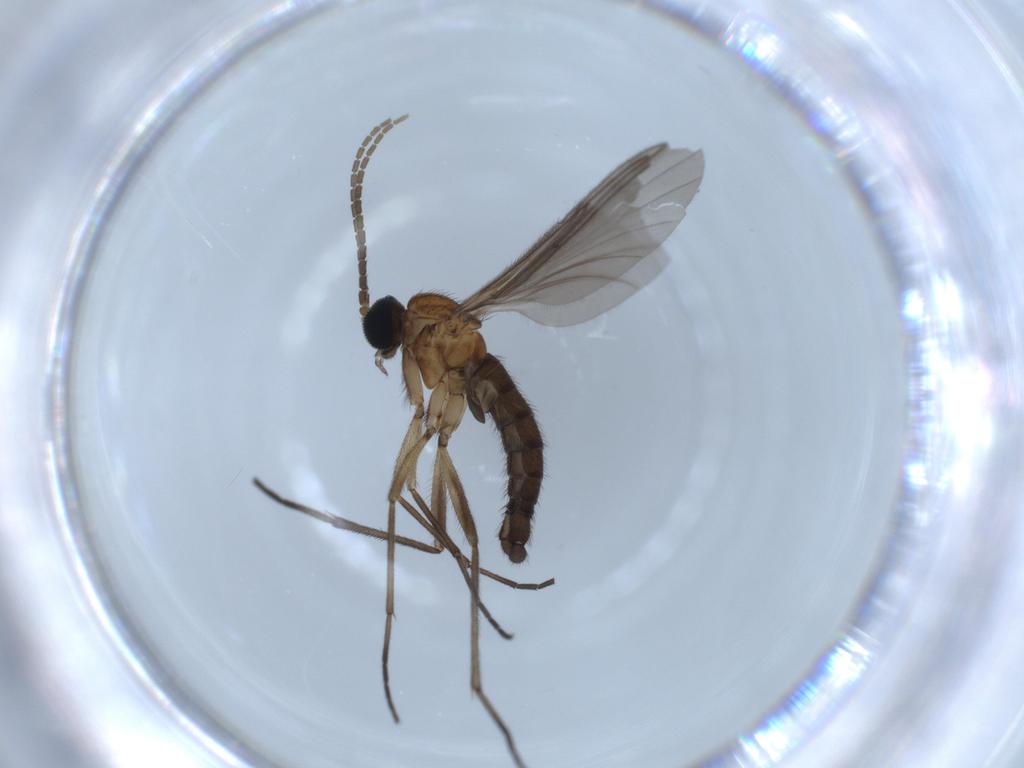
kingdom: Animalia
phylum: Arthropoda
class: Insecta
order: Diptera
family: Sciaridae
